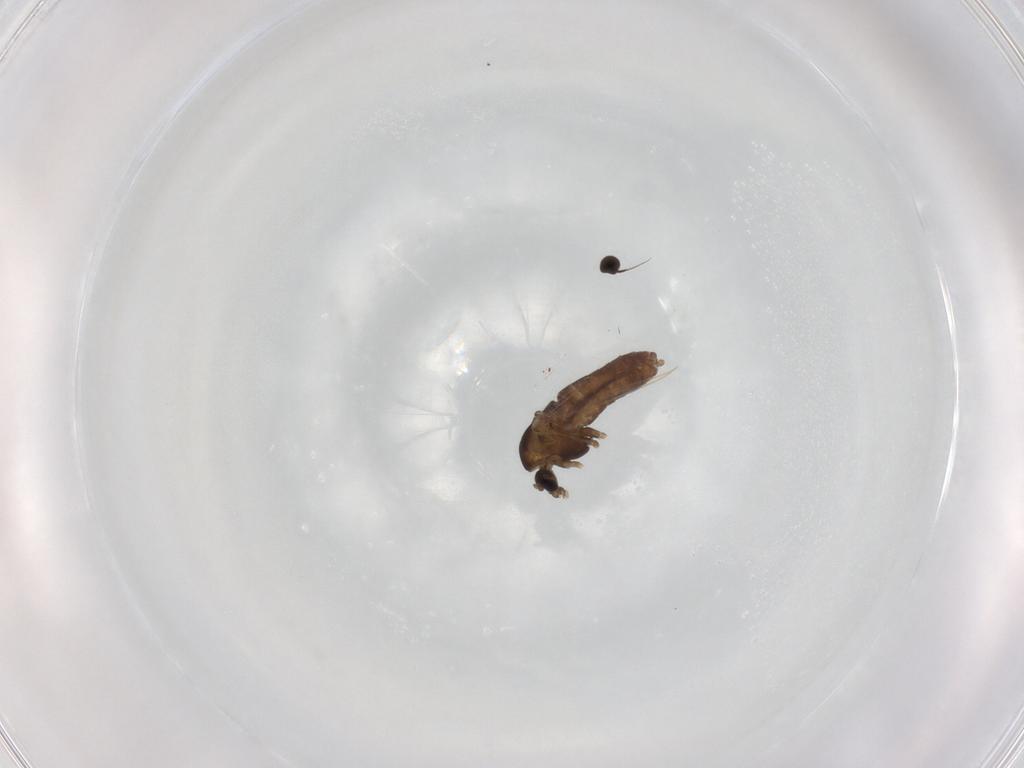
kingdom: Animalia
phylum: Arthropoda
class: Insecta
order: Diptera
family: Chironomidae
